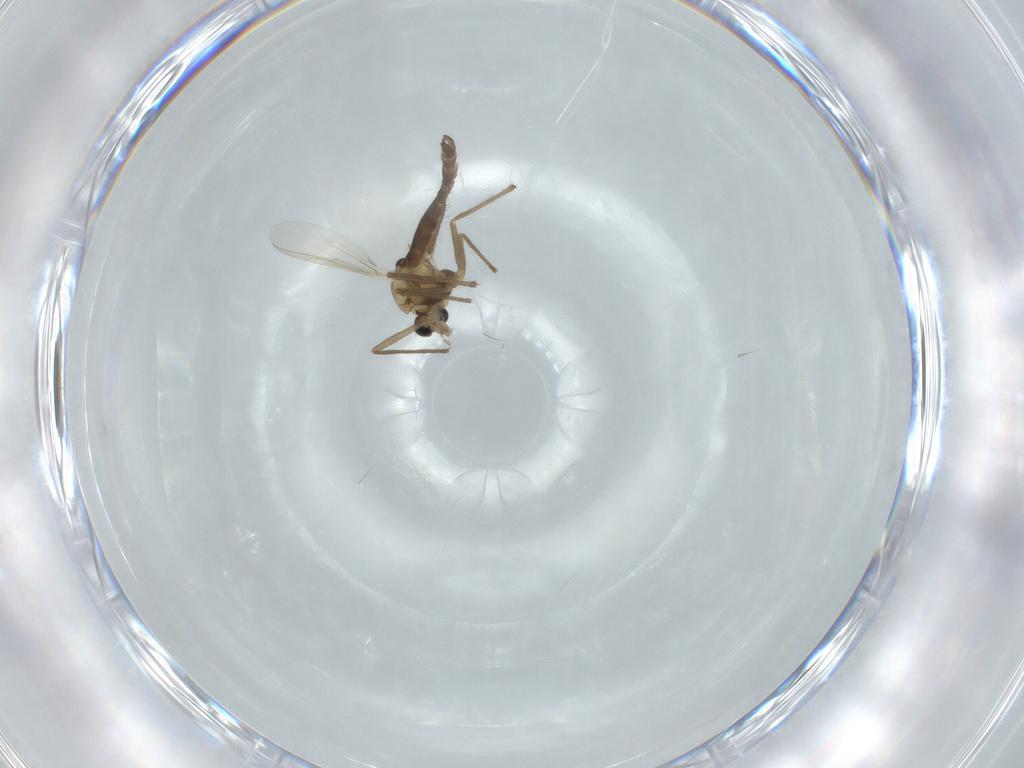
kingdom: Animalia
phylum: Arthropoda
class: Insecta
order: Diptera
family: Chironomidae
